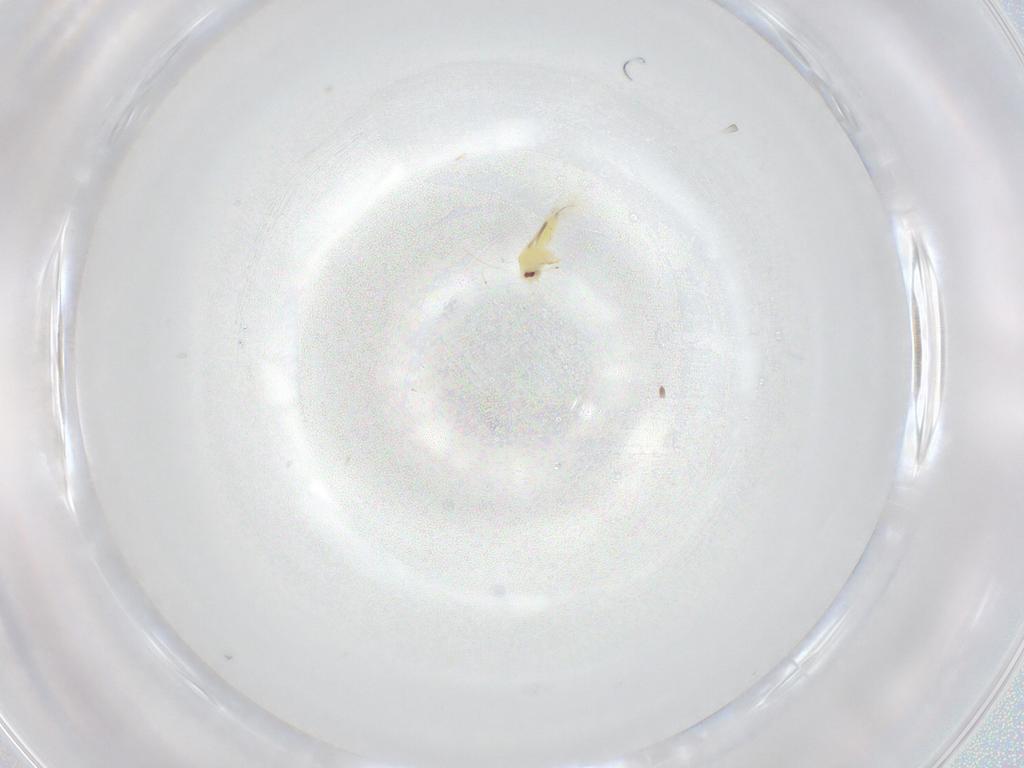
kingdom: Animalia
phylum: Arthropoda
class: Insecta
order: Hemiptera
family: Aleyrodidae
